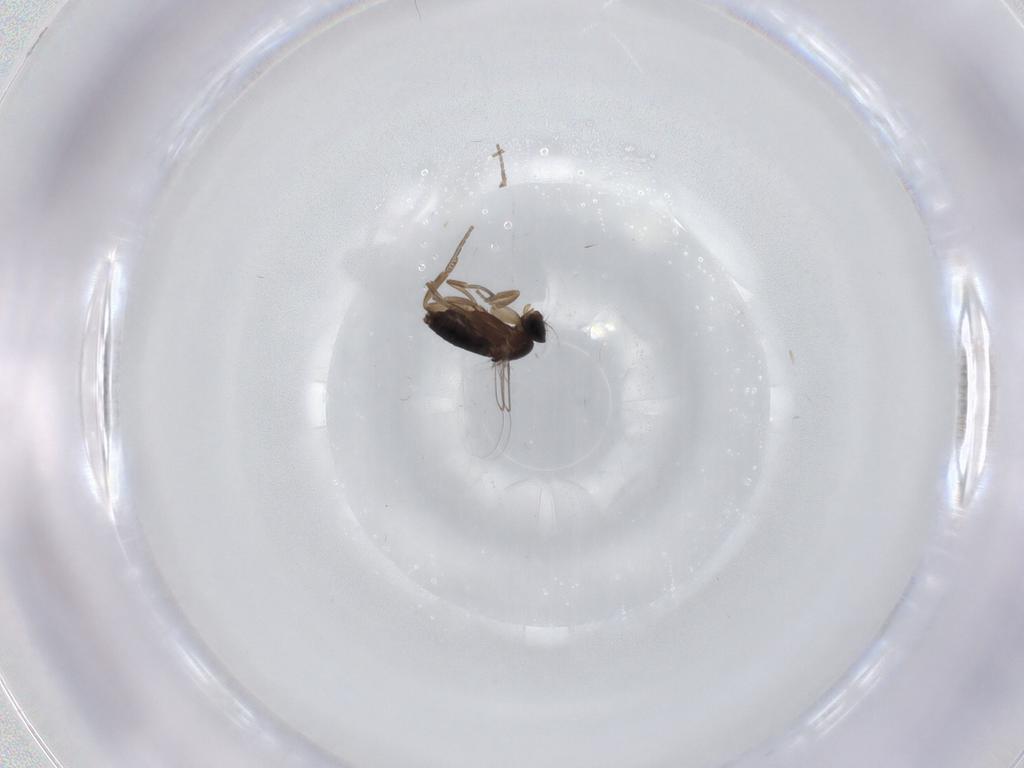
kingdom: Animalia
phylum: Arthropoda
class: Insecta
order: Diptera
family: Phoridae
